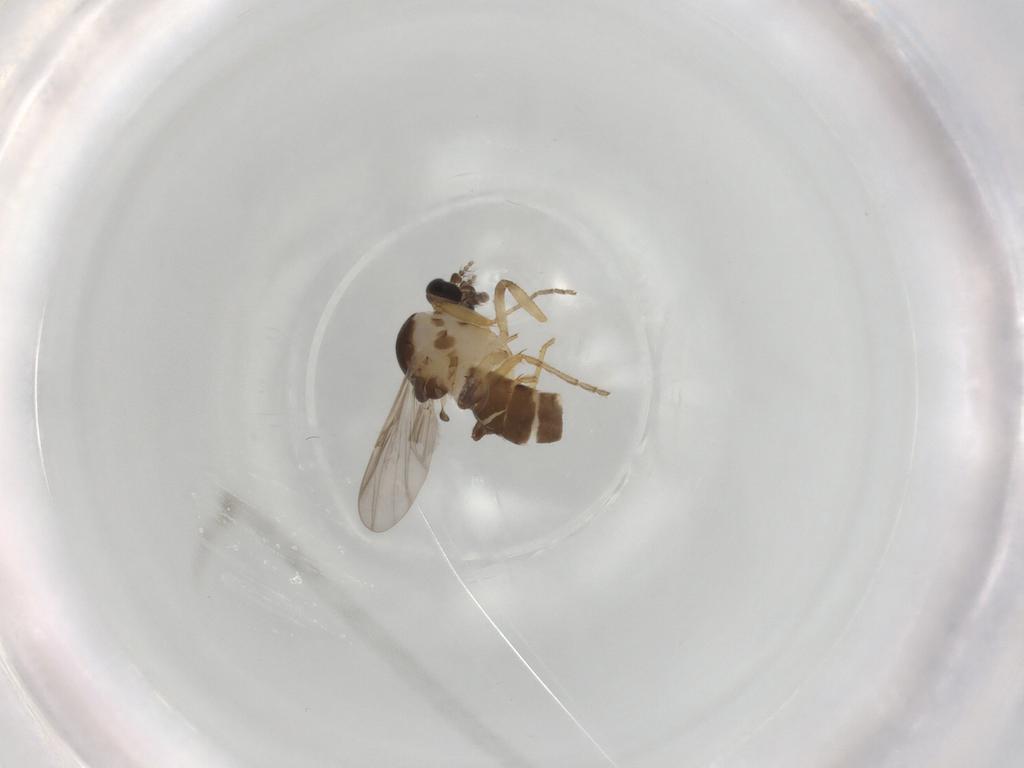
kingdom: Animalia
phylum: Arthropoda
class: Insecta
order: Diptera
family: Ceratopogonidae
